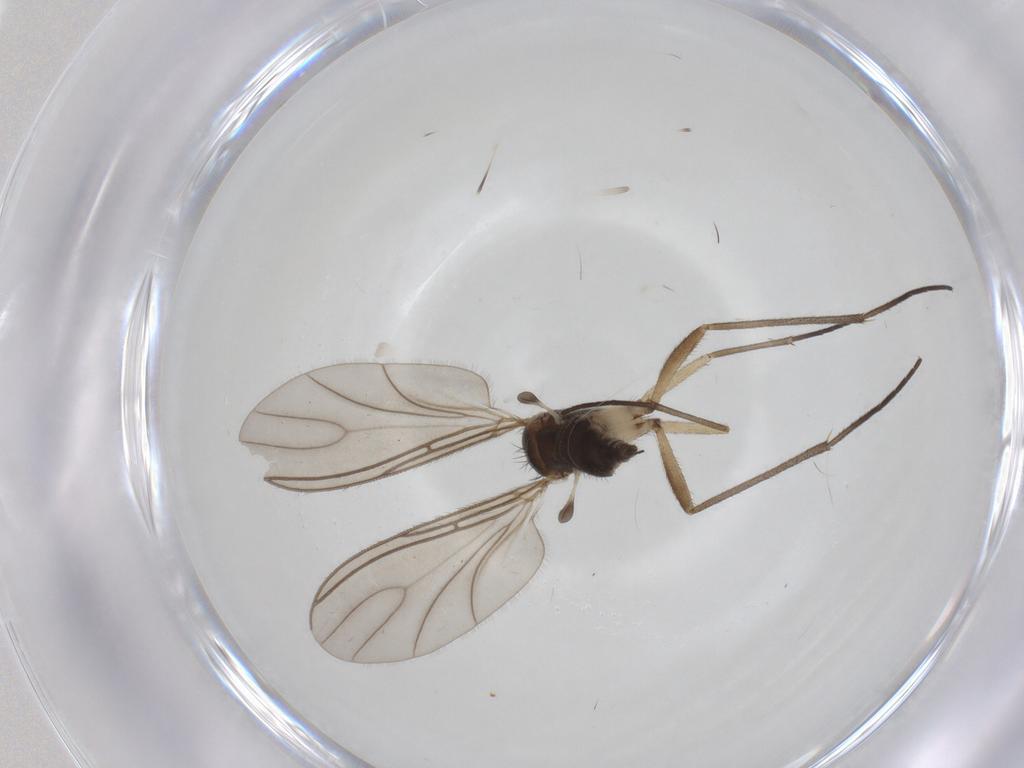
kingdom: Animalia
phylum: Arthropoda
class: Insecta
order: Diptera
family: Sciaridae
